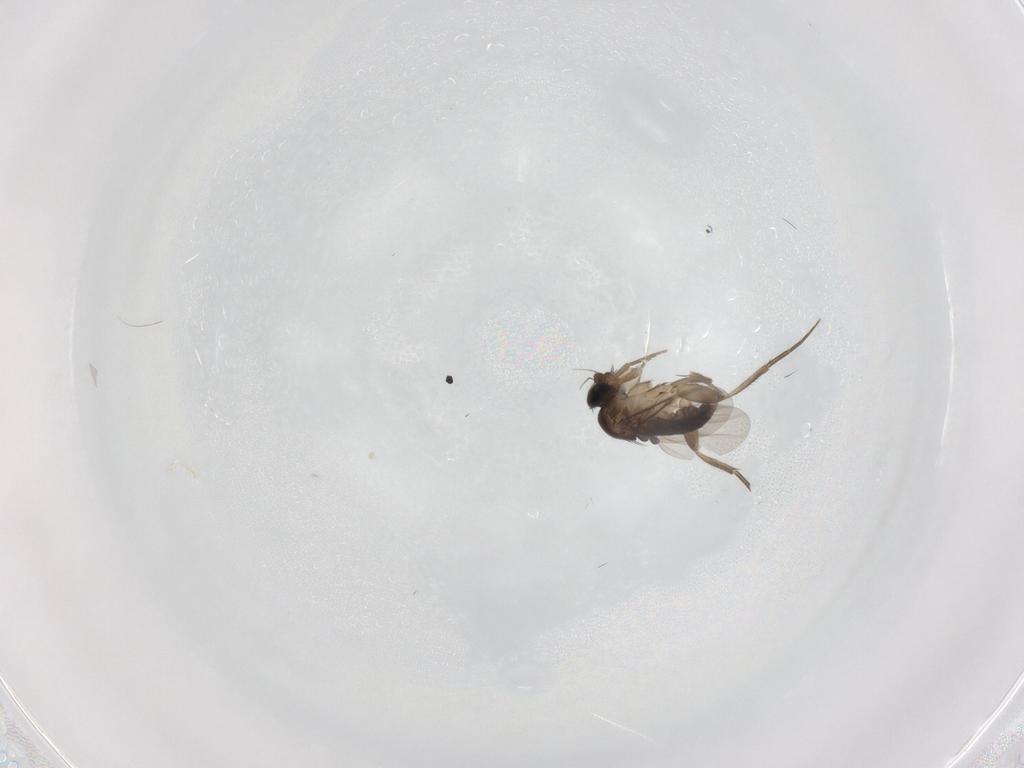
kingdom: Animalia
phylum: Arthropoda
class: Insecta
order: Diptera
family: Phoridae
